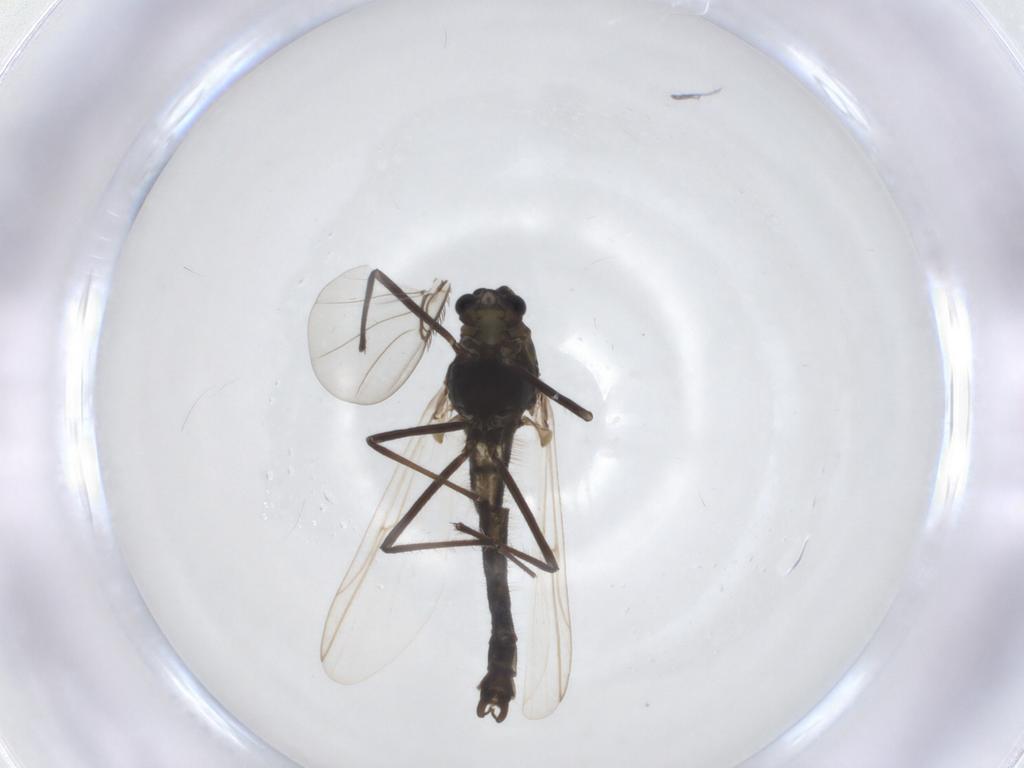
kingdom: Animalia
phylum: Arthropoda
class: Insecta
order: Diptera
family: Chironomidae
